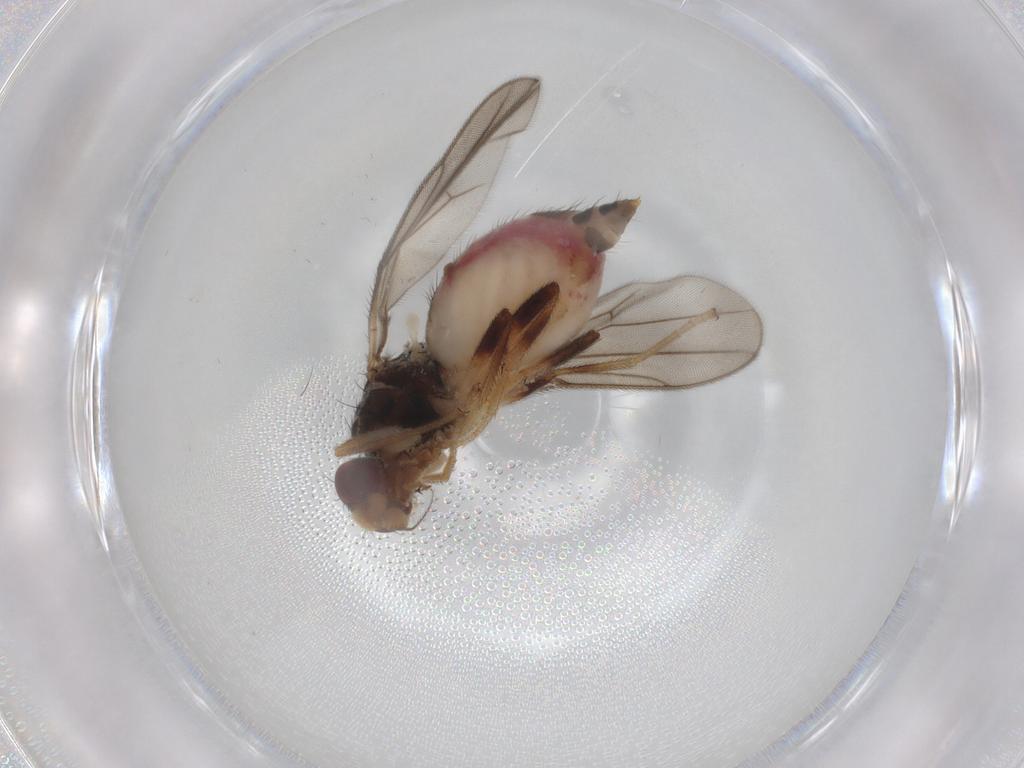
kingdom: Animalia
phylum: Arthropoda
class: Insecta
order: Diptera
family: Chloropidae
